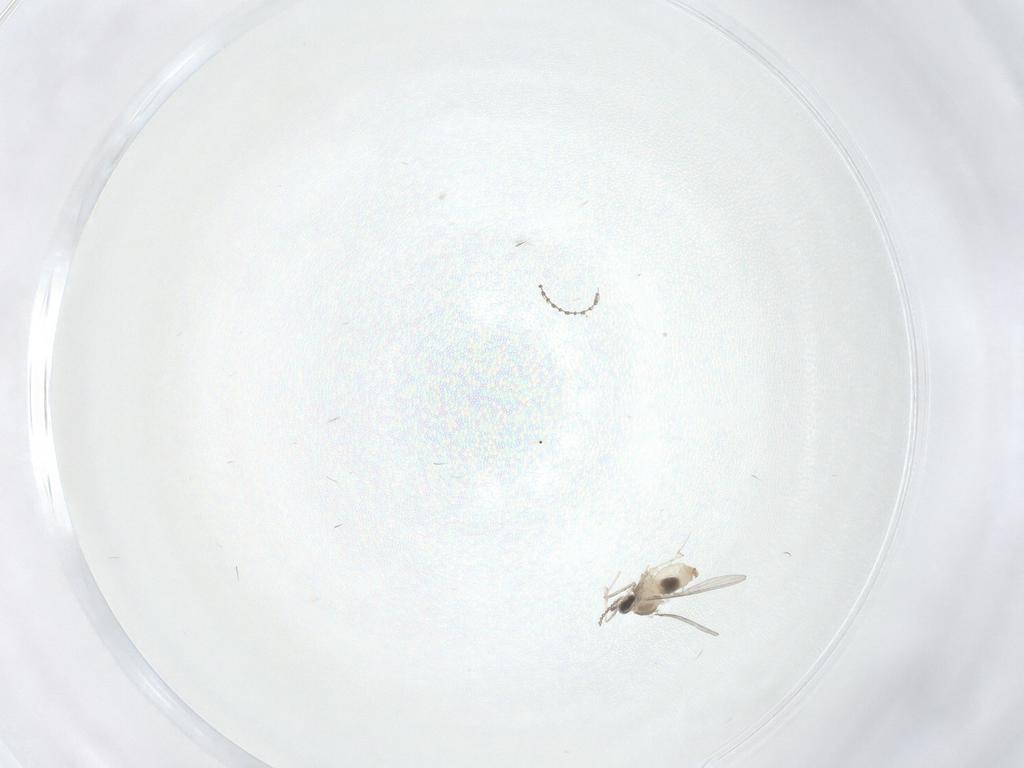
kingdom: Animalia
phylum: Arthropoda
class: Insecta
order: Diptera
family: Cecidomyiidae
